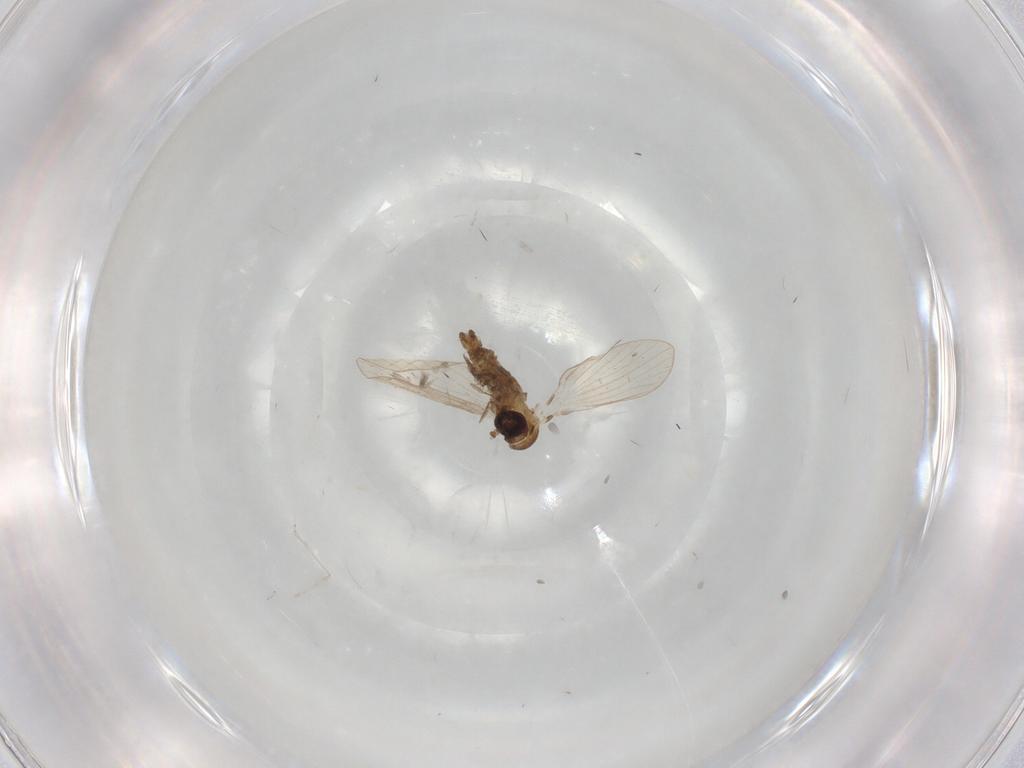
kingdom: Animalia
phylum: Arthropoda
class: Insecta
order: Diptera
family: Drosophilidae
